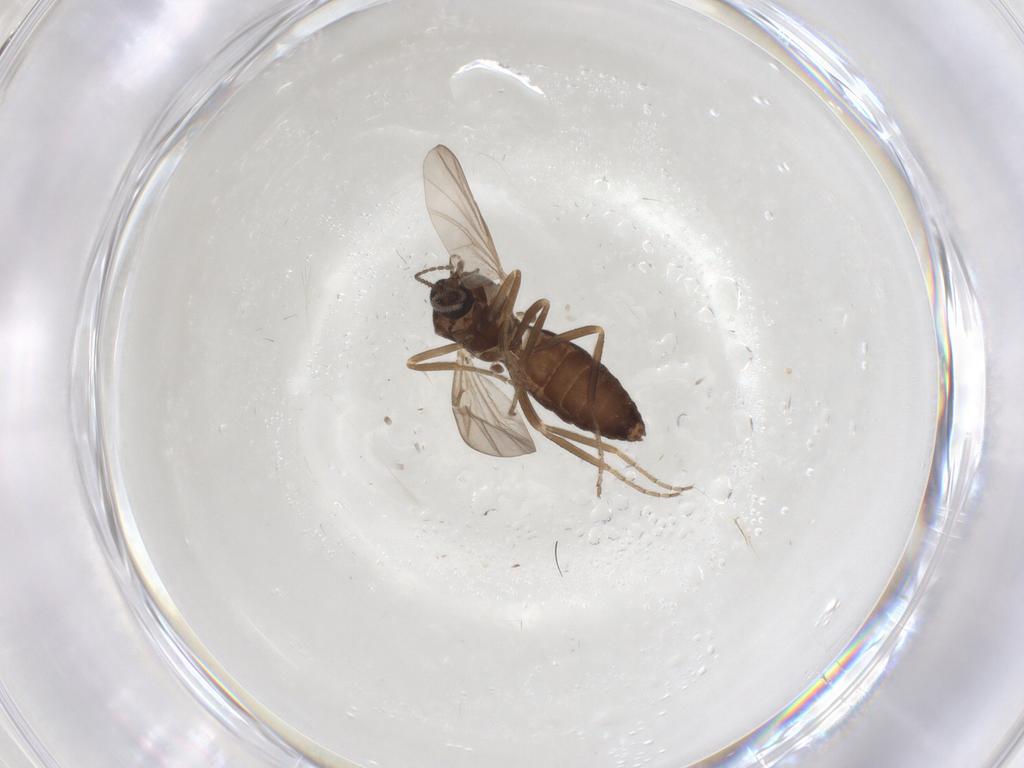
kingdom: Animalia
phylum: Arthropoda
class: Insecta
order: Diptera
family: Ceratopogonidae
